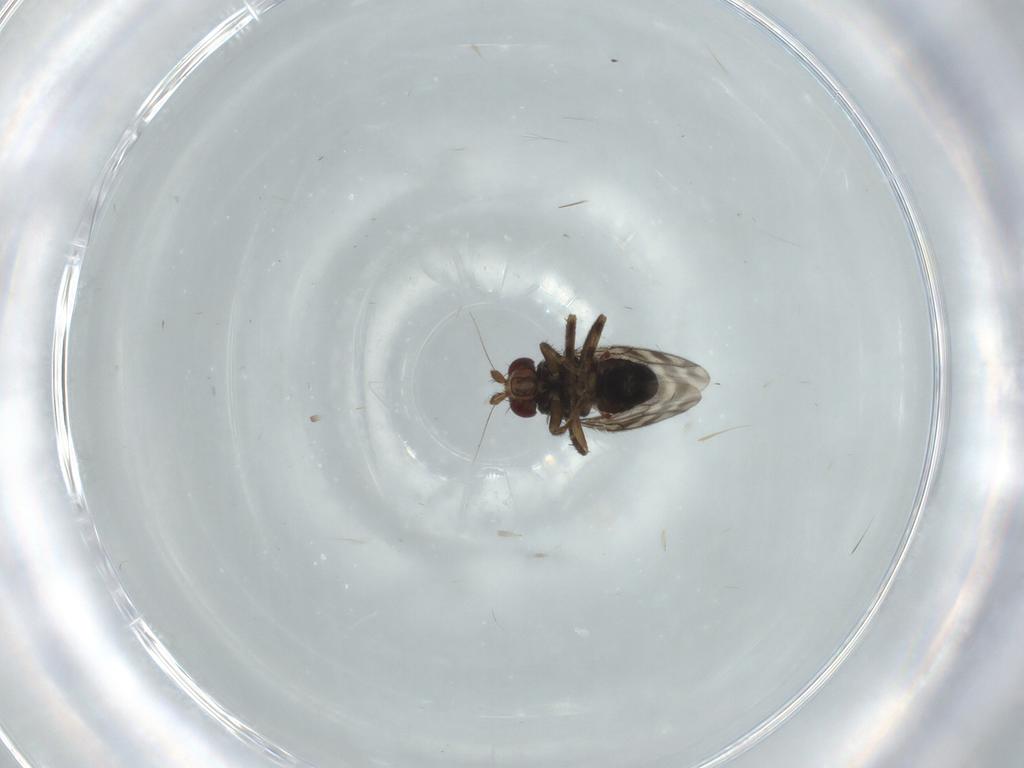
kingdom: Animalia
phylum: Arthropoda
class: Insecta
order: Diptera
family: Sphaeroceridae
